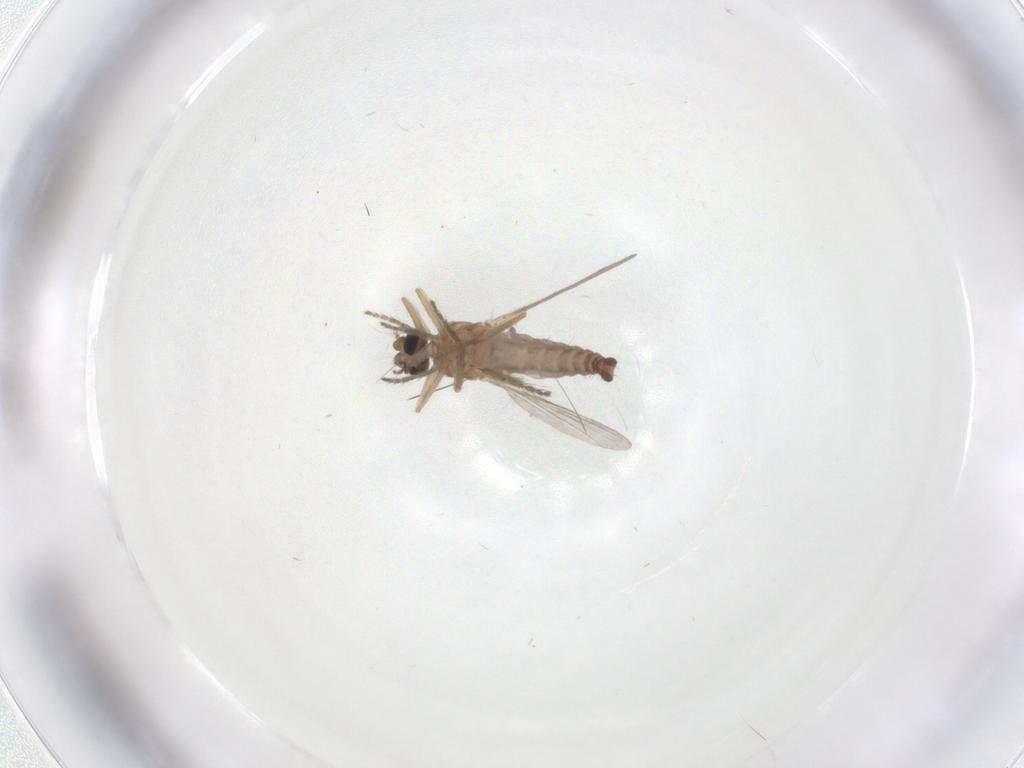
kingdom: Animalia
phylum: Arthropoda
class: Insecta
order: Diptera
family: Ceratopogonidae
